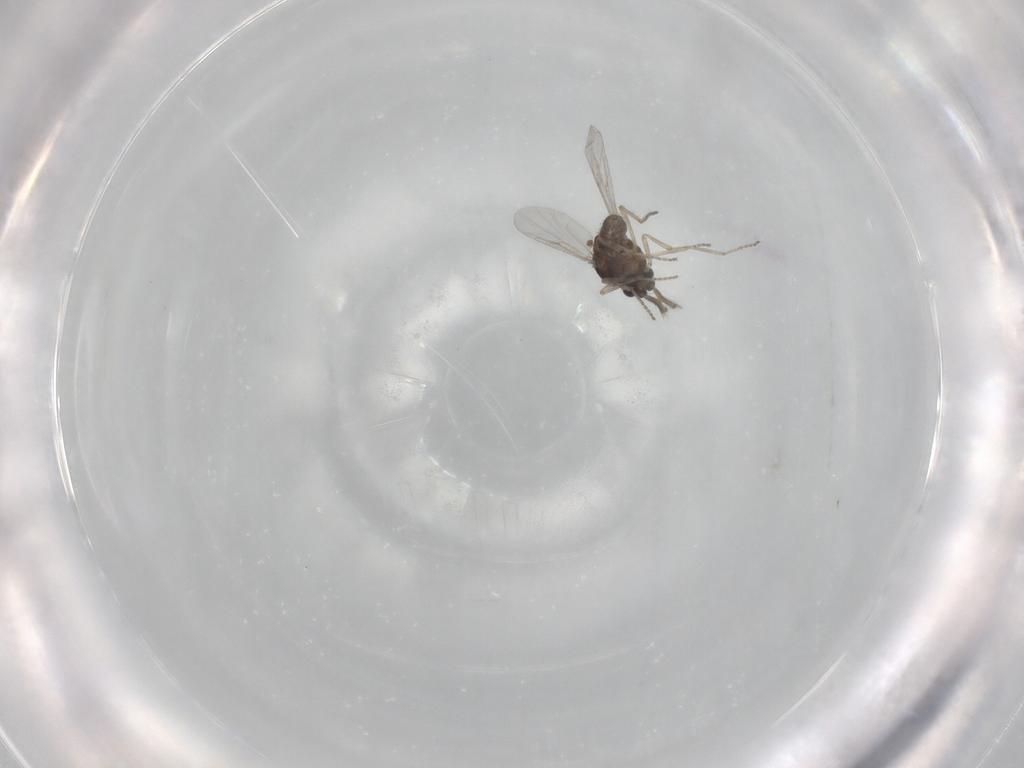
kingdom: Animalia
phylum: Arthropoda
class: Insecta
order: Diptera
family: Ceratopogonidae
